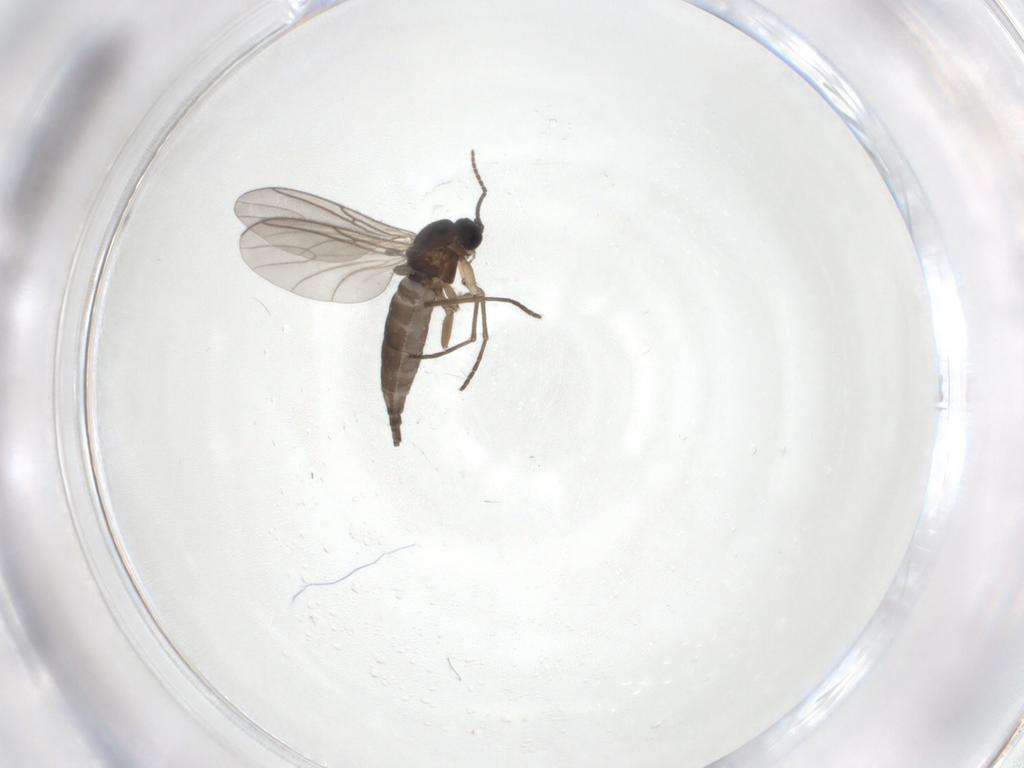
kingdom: Animalia
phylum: Arthropoda
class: Insecta
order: Diptera
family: Sciaridae
